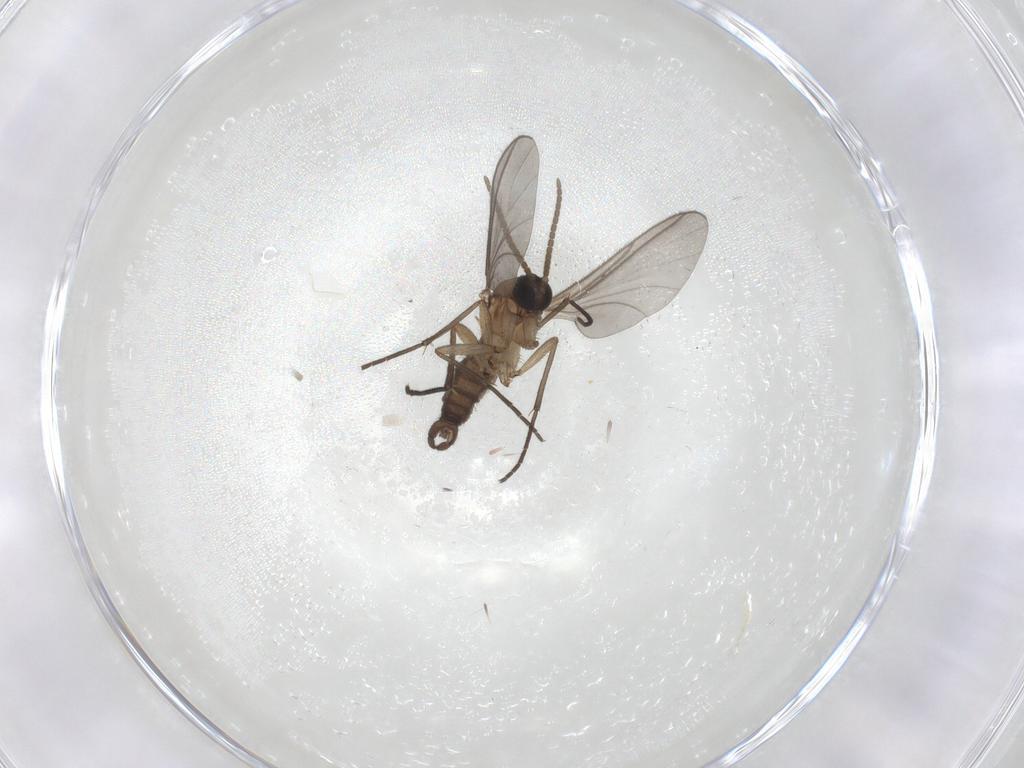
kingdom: Animalia
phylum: Arthropoda
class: Insecta
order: Diptera
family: Sciaridae
